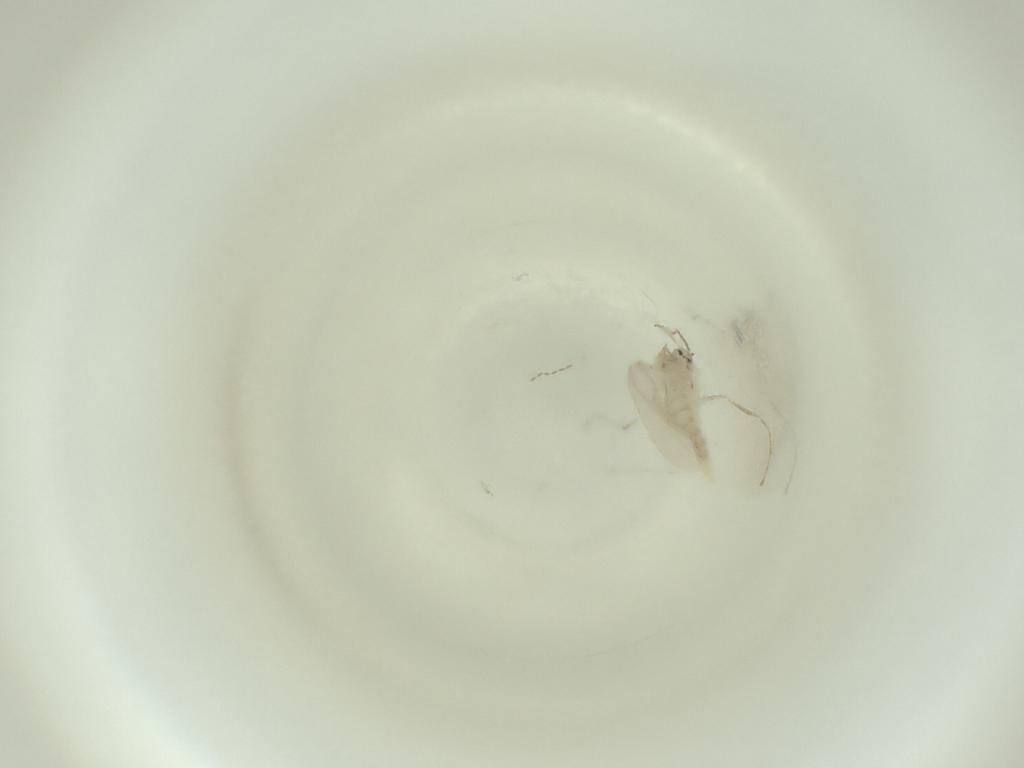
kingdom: Animalia
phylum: Arthropoda
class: Insecta
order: Diptera
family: Cecidomyiidae
